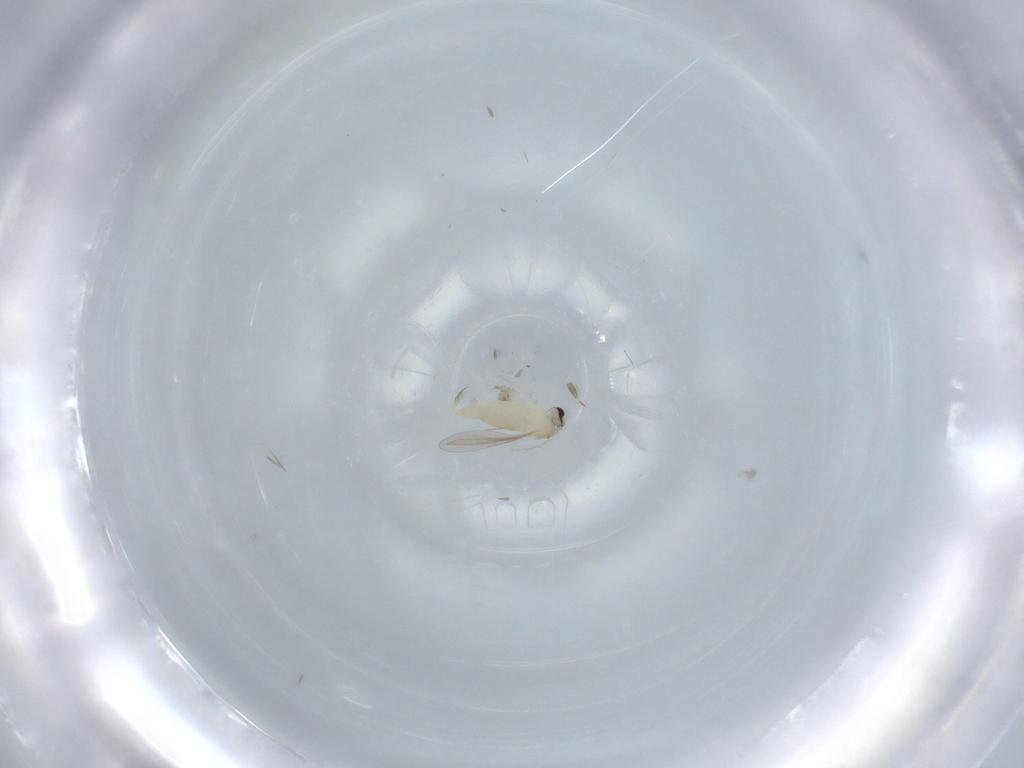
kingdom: Animalia
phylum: Arthropoda
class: Insecta
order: Diptera
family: Cecidomyiidae
